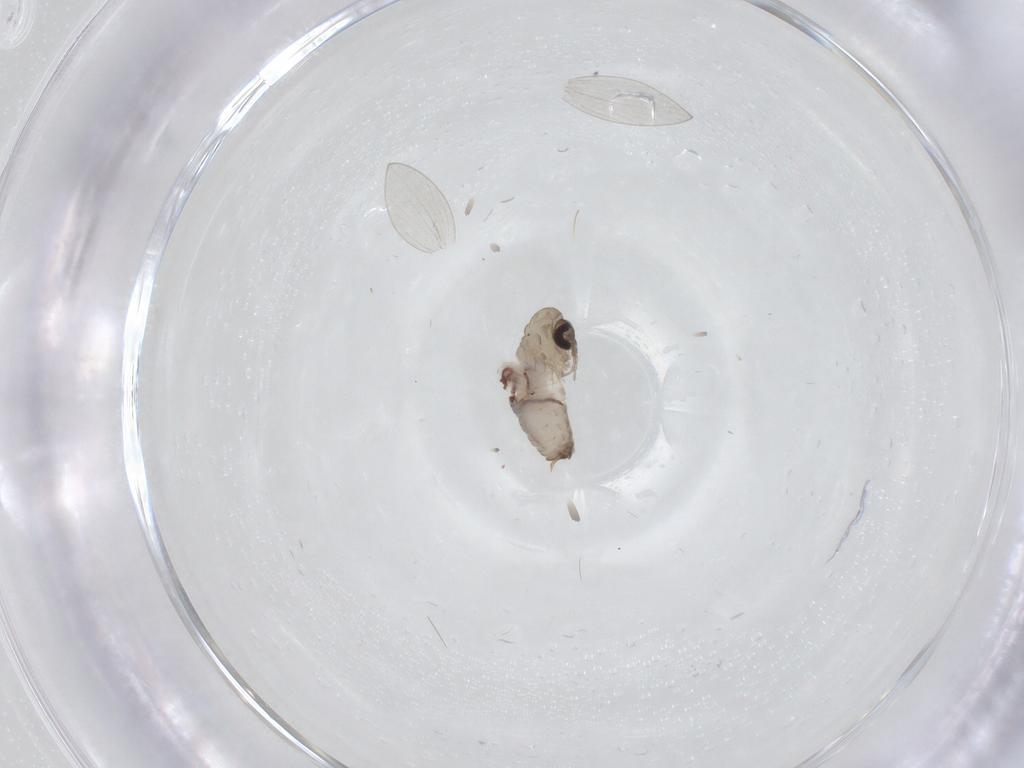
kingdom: Animalia
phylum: Arthropoda
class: Insecta
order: Diptera
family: Psychodidae
